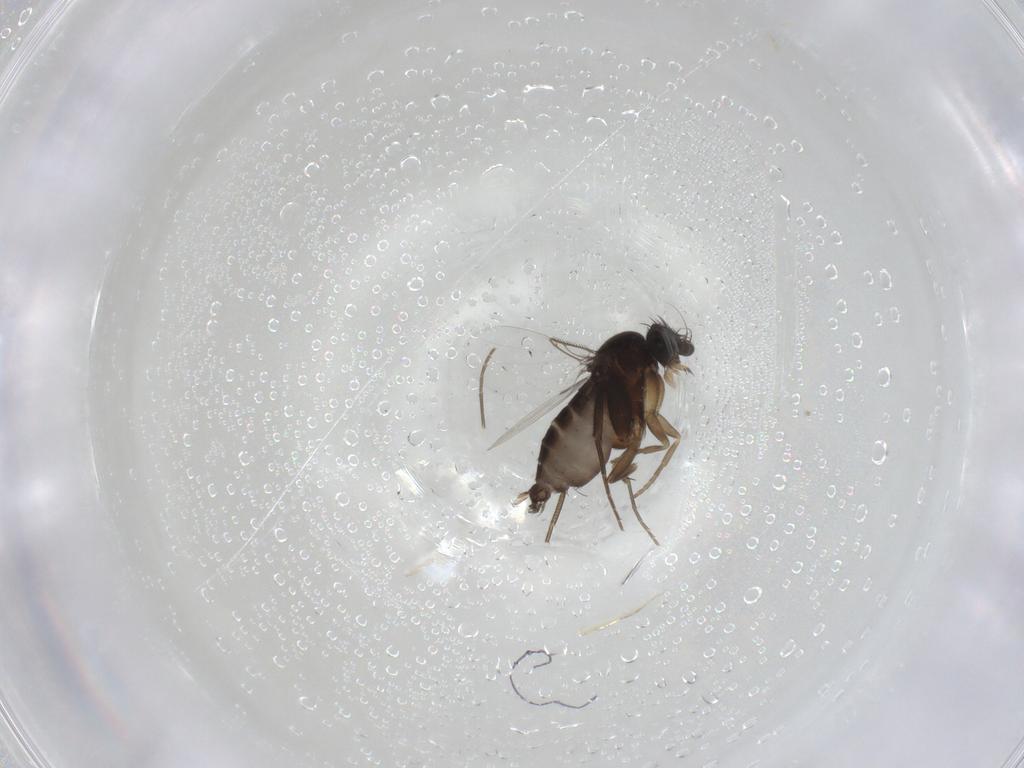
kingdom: Animalia
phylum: Arthropoda
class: Insecta
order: Diptera
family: Phoridae
